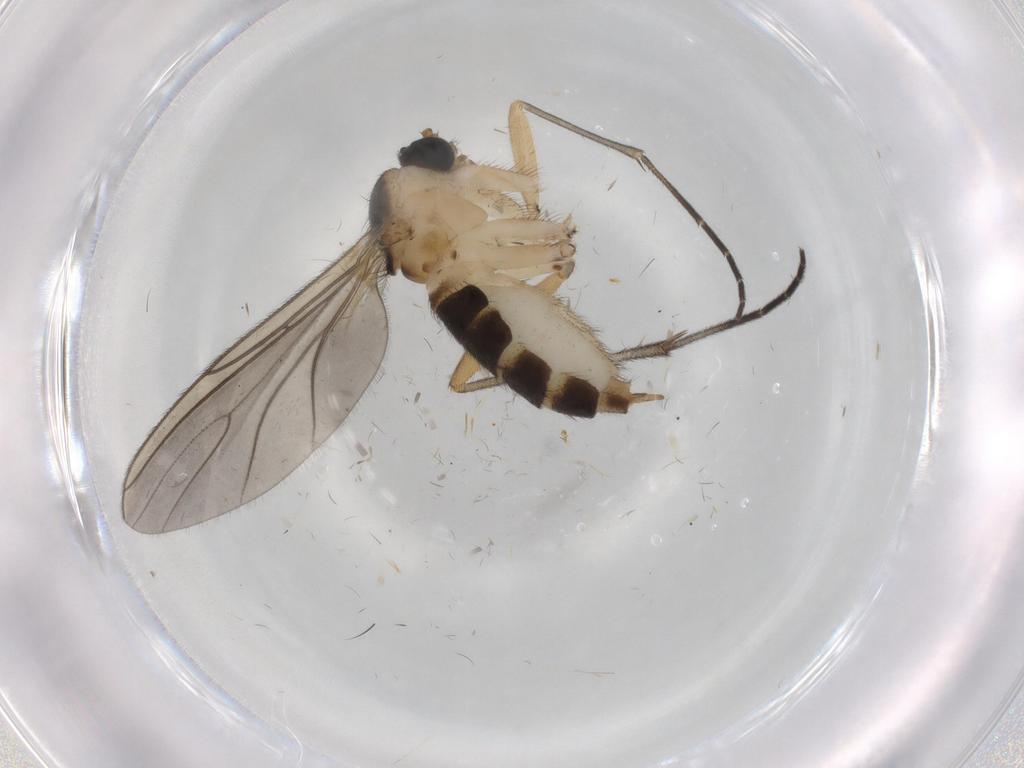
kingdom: Animalia
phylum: Arthropoda
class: Insecta
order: Diptera
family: Sciaridae
